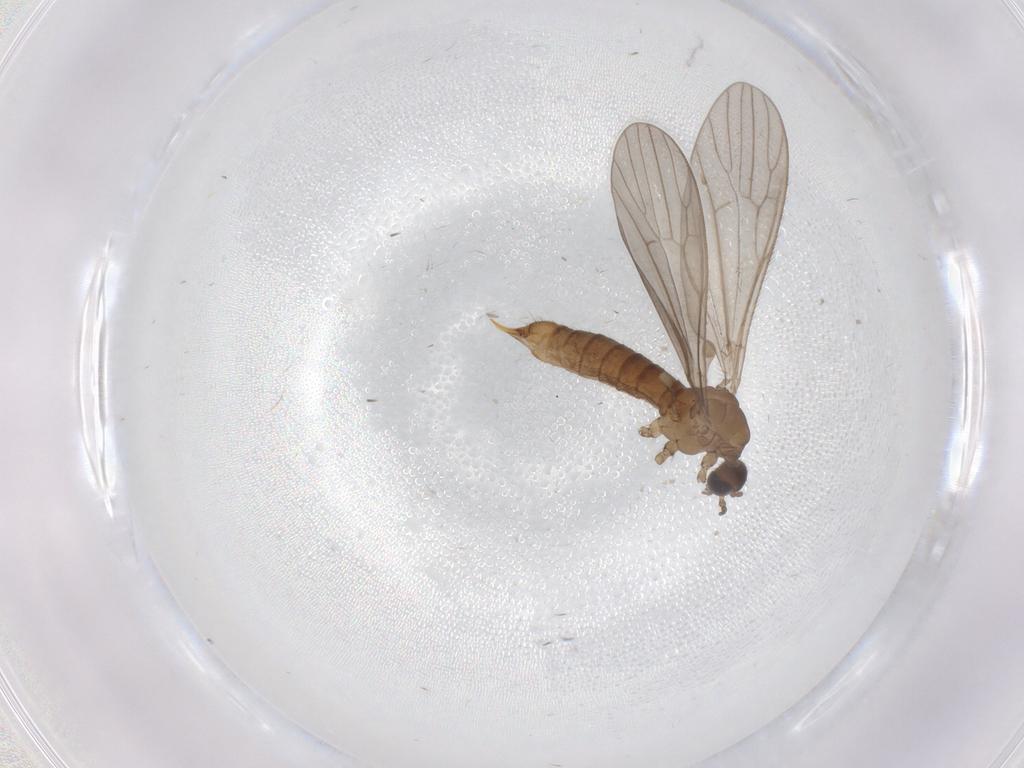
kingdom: Animalia
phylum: Arthropoda
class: Insecta
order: Diptera
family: Limoniidae
